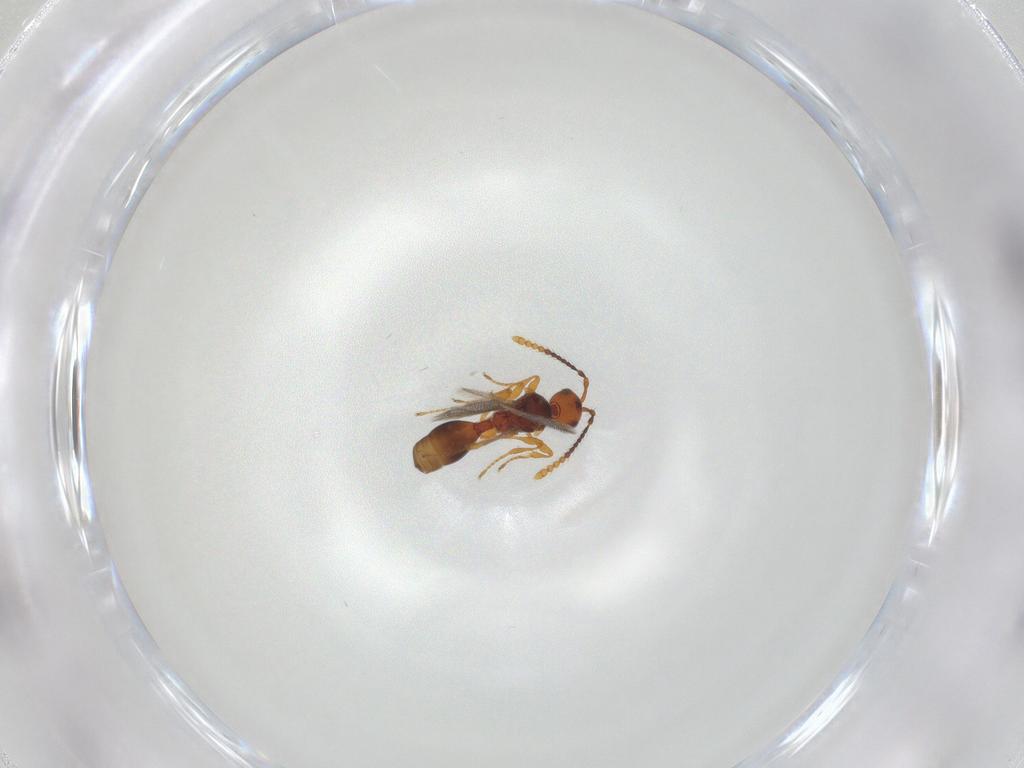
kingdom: Animalia
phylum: Arthropoda
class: Insecta
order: Hymenoptera
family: Diapriidae
